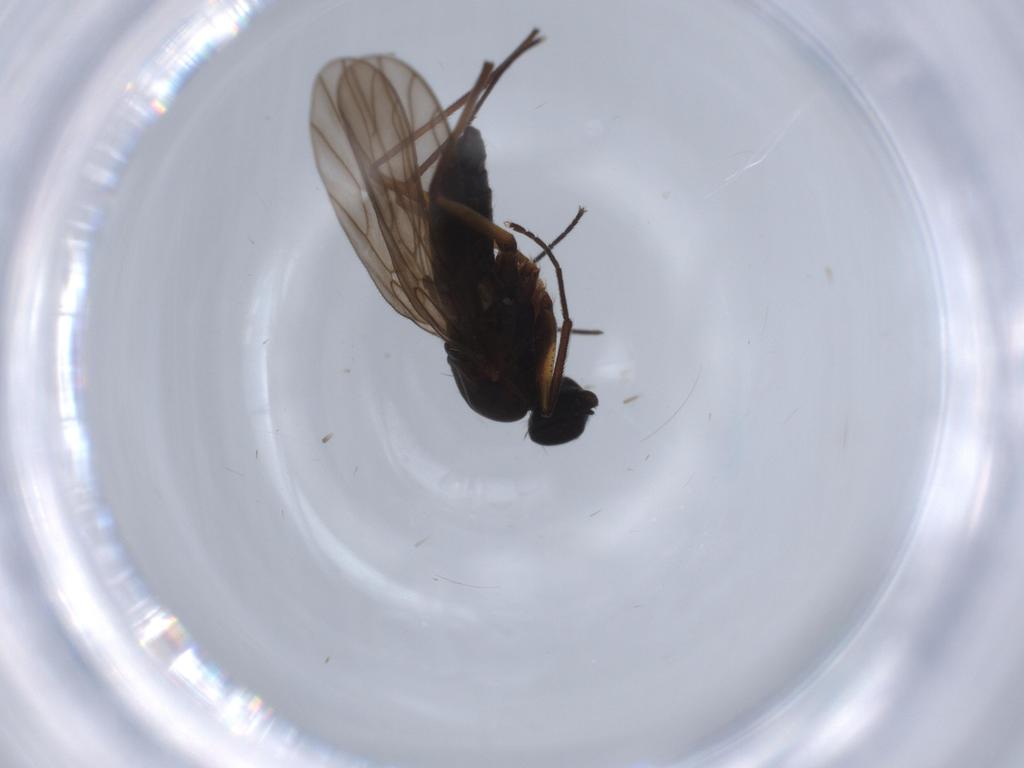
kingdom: Animalia
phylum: Arthropoda
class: Insecta
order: Diptera
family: Empididae
